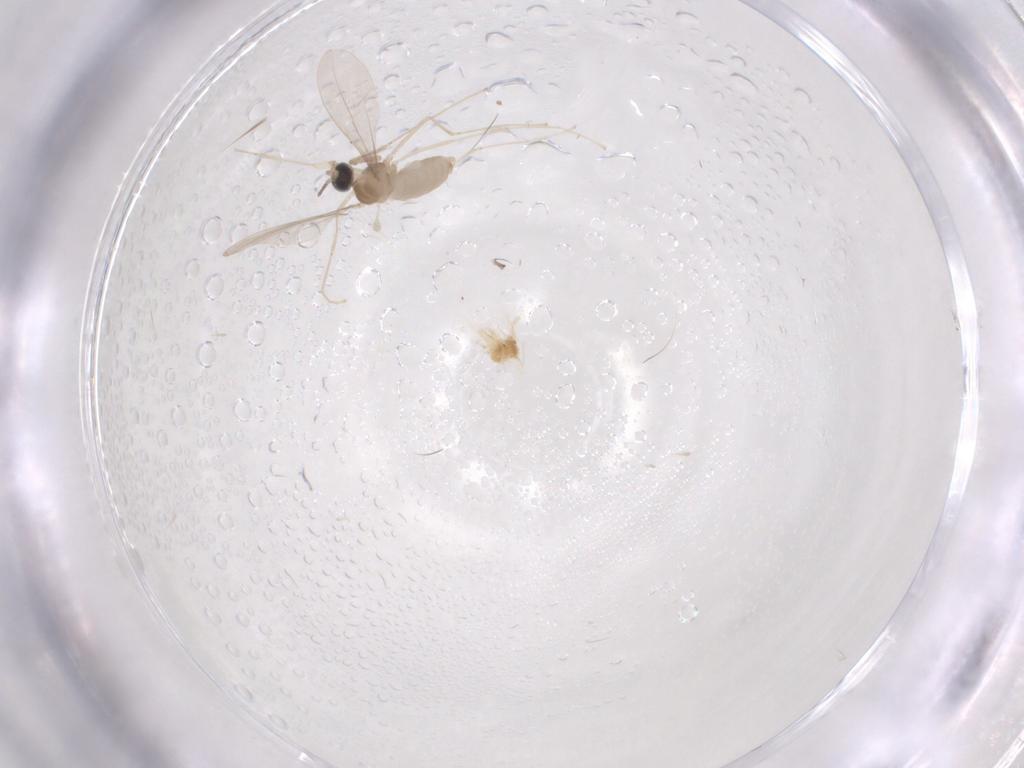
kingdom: Animalia
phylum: Arthropoda
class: Insecta
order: Diptera
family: Cecidomyiidae
